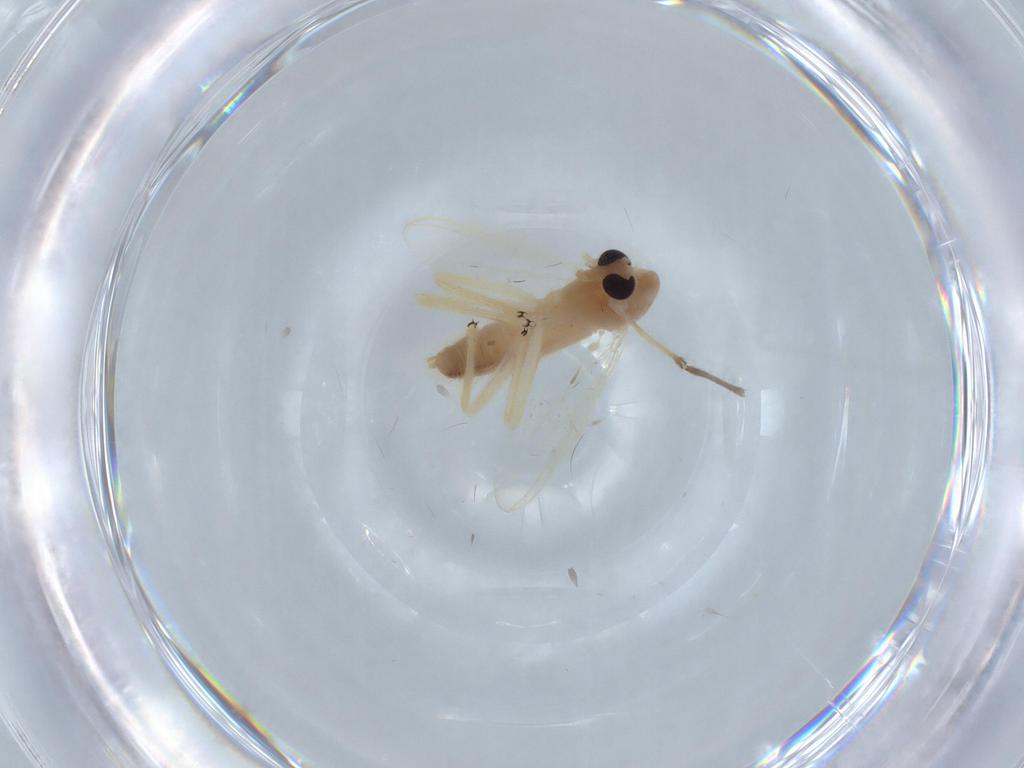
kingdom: Animalia
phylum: Arthropoda
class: Insecta
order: Diptera
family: Chironomidae
